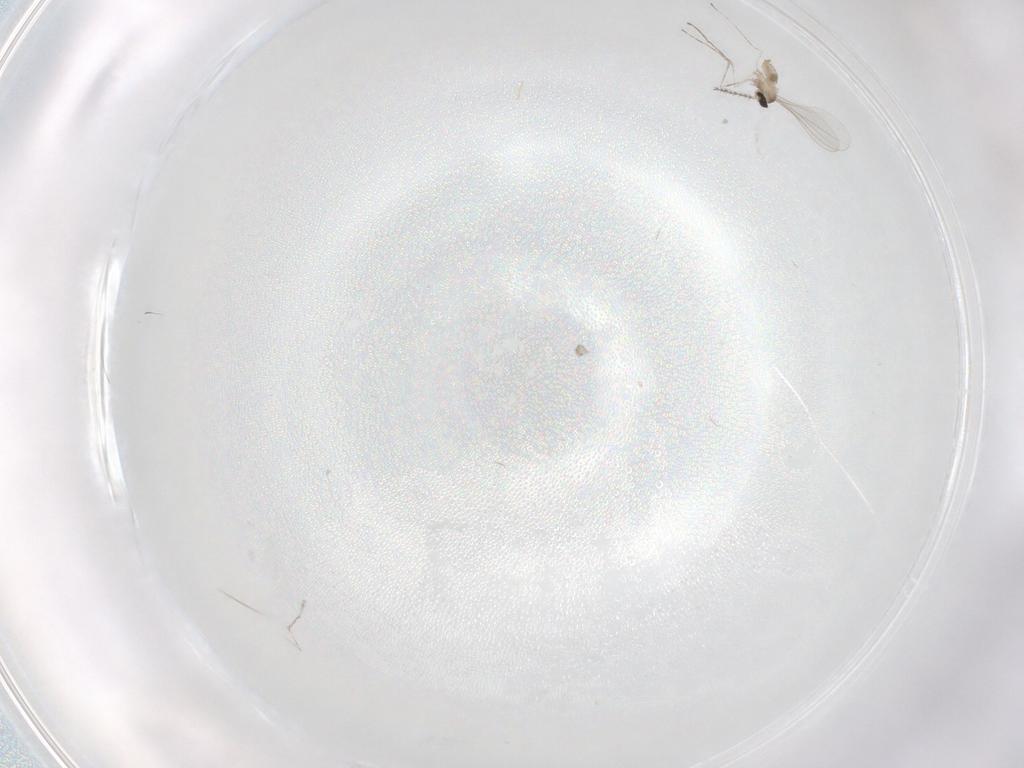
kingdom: Animalia
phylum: Arthropoda
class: Insecta
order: Diptera
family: Cecidomyiidae
